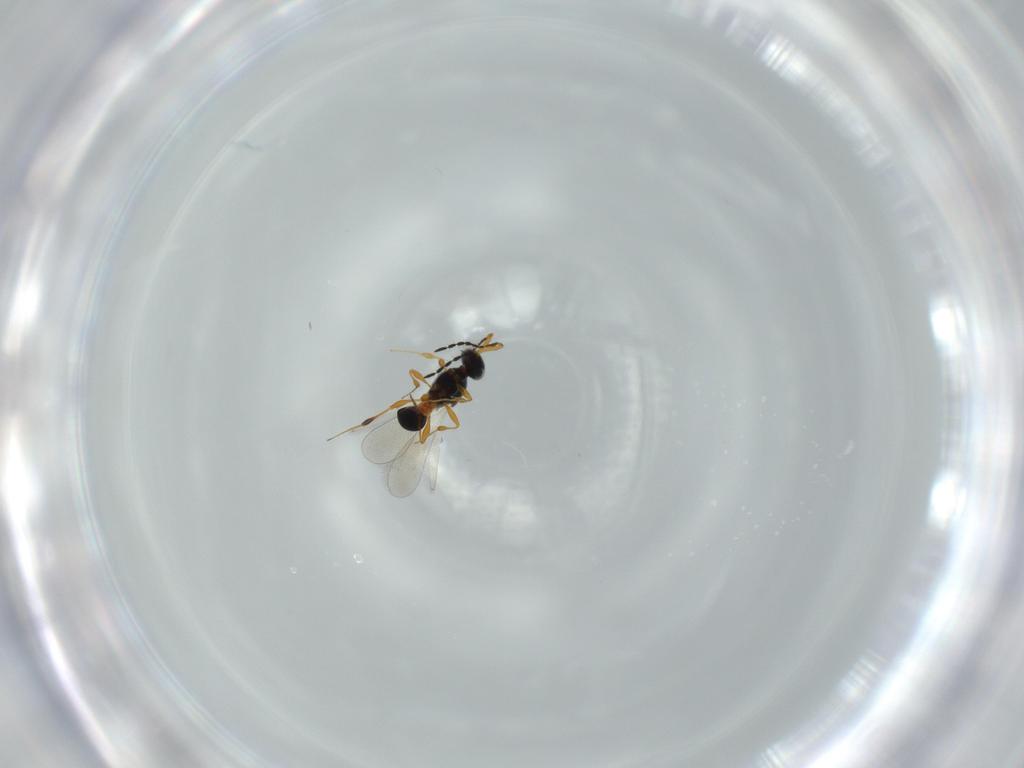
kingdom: Animalia
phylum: Arthropoda
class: Insecta
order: Hymenoptera
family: Platygastridae
